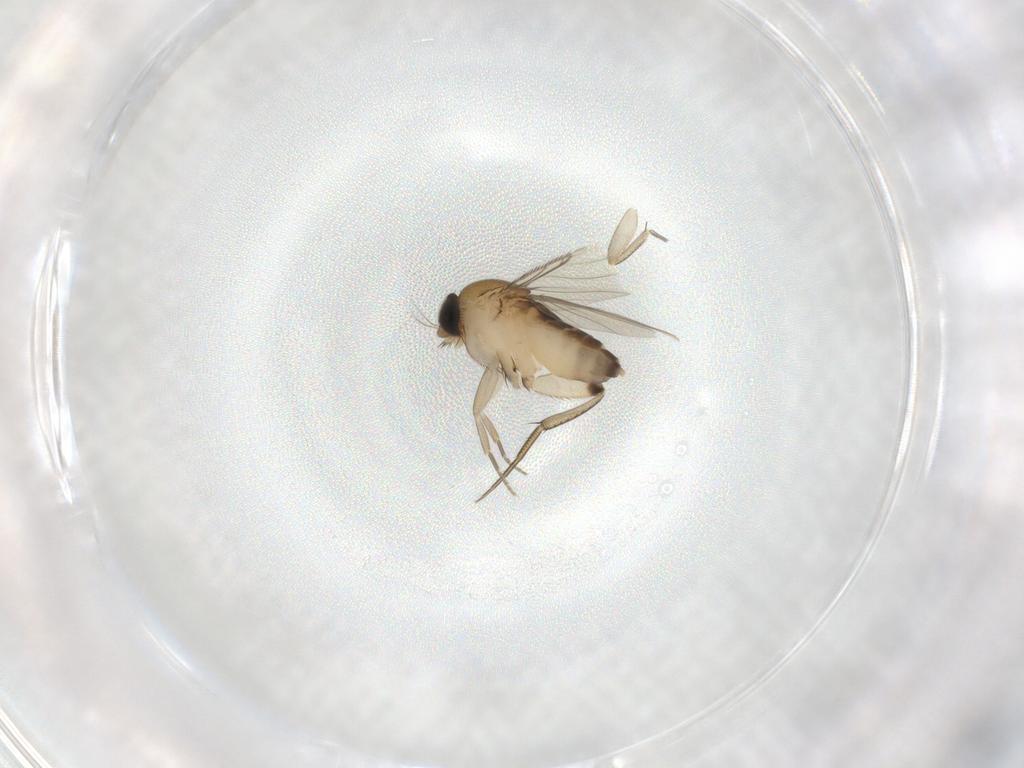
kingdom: Animalia
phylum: Arthropoda
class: Insecta
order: Diptera
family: Phoridae
